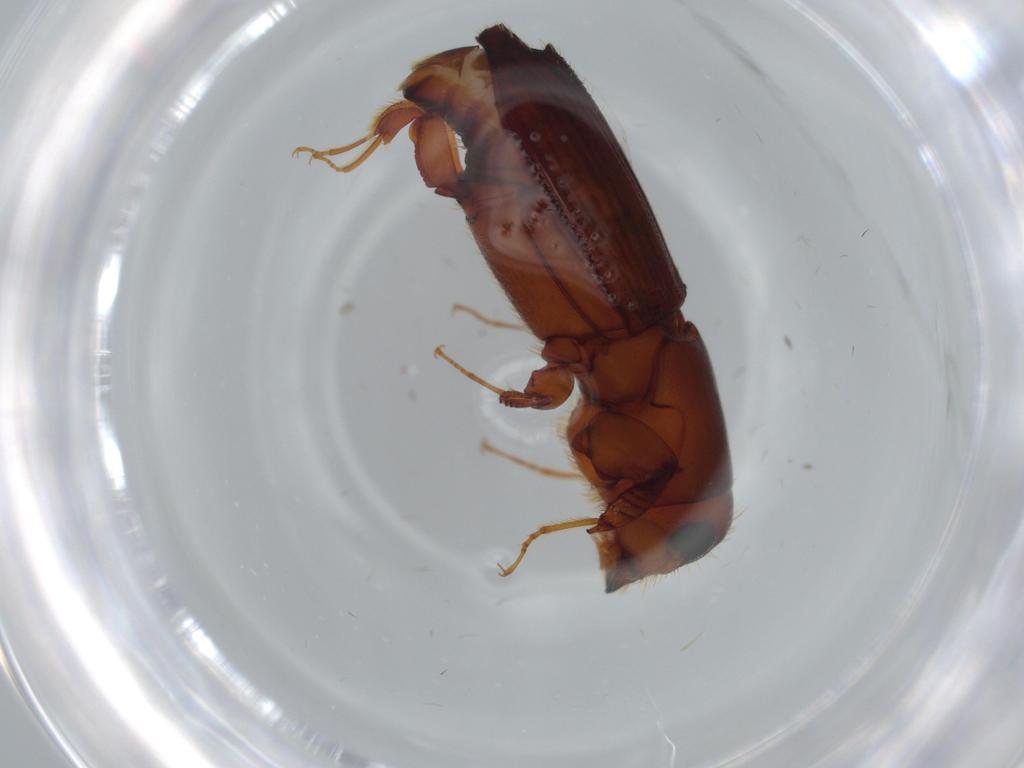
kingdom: Animalia
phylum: Arthropoda
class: Insecta
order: Coleoptera
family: Curculionidae
